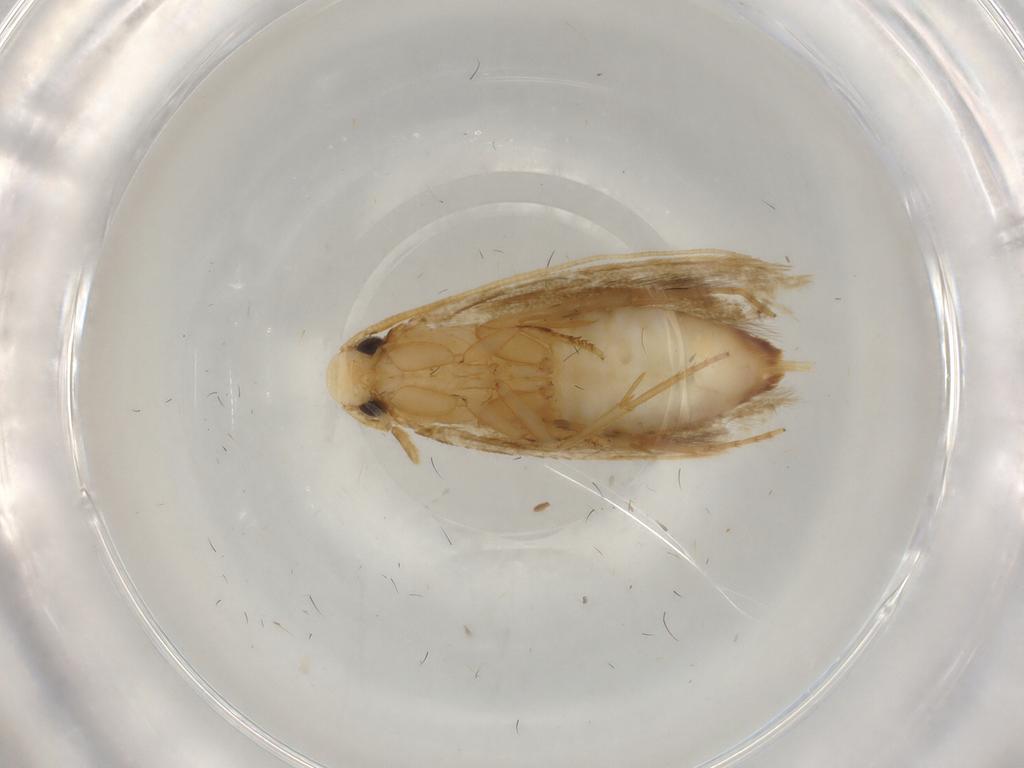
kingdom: Animalia
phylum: Arthropoda
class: Insecta
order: Lepidoptera
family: Tineidae
